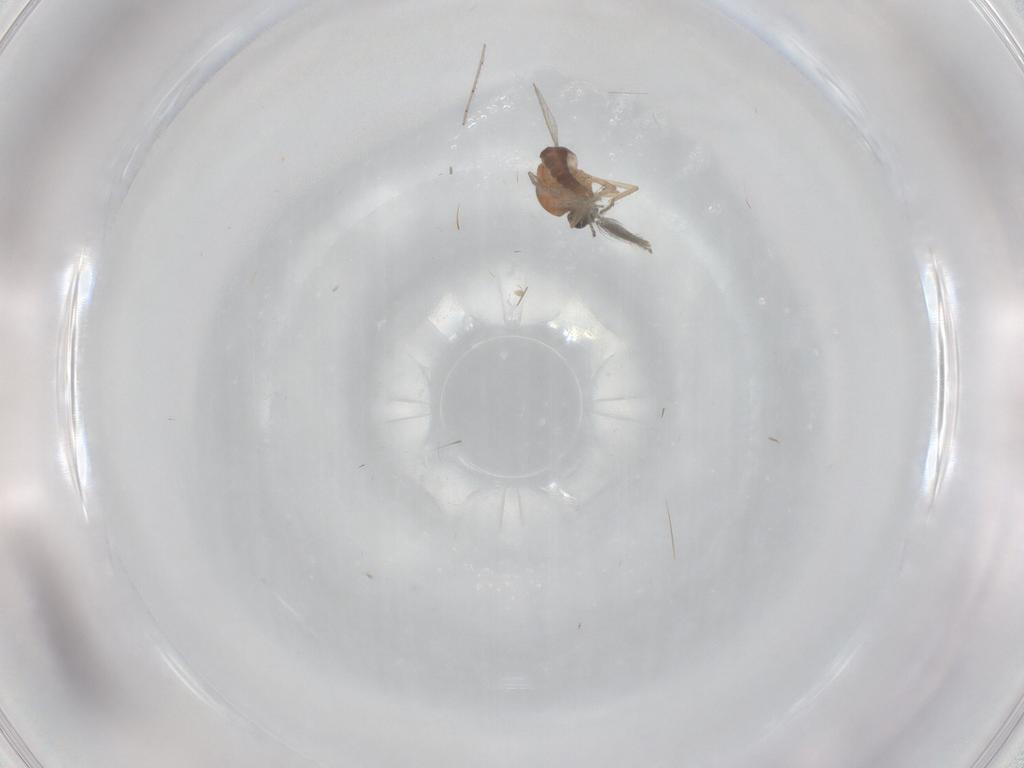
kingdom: Animalia
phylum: Arthropoda
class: Insecta
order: Diptera
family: Ceratopogonidae
